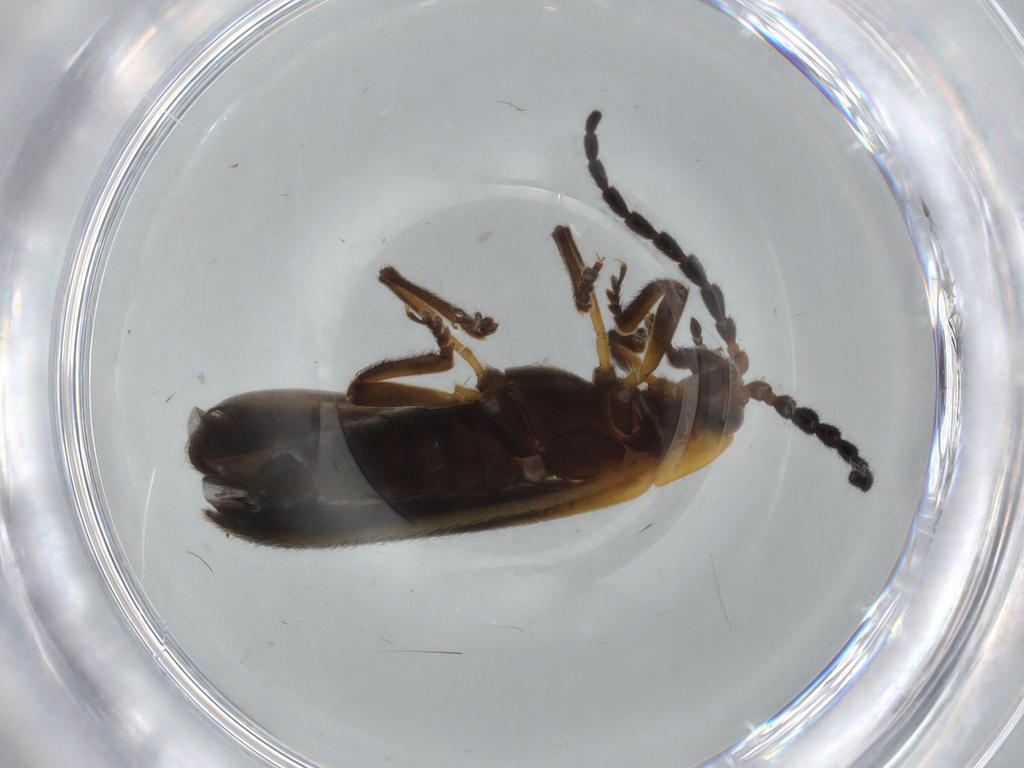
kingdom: Animalia
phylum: Arthropoda
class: Insecta
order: Coleoptera
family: Lycidae
